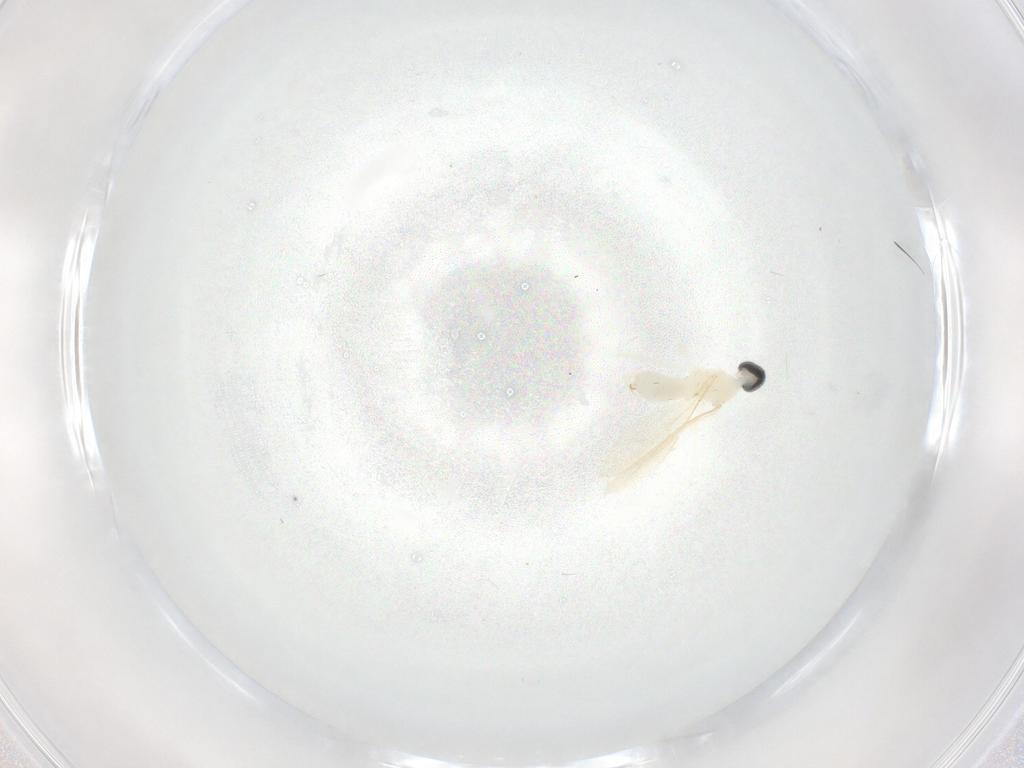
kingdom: Animalia
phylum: Arthropoda
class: Insecta
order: Diptera
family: Cecidomyiidae
